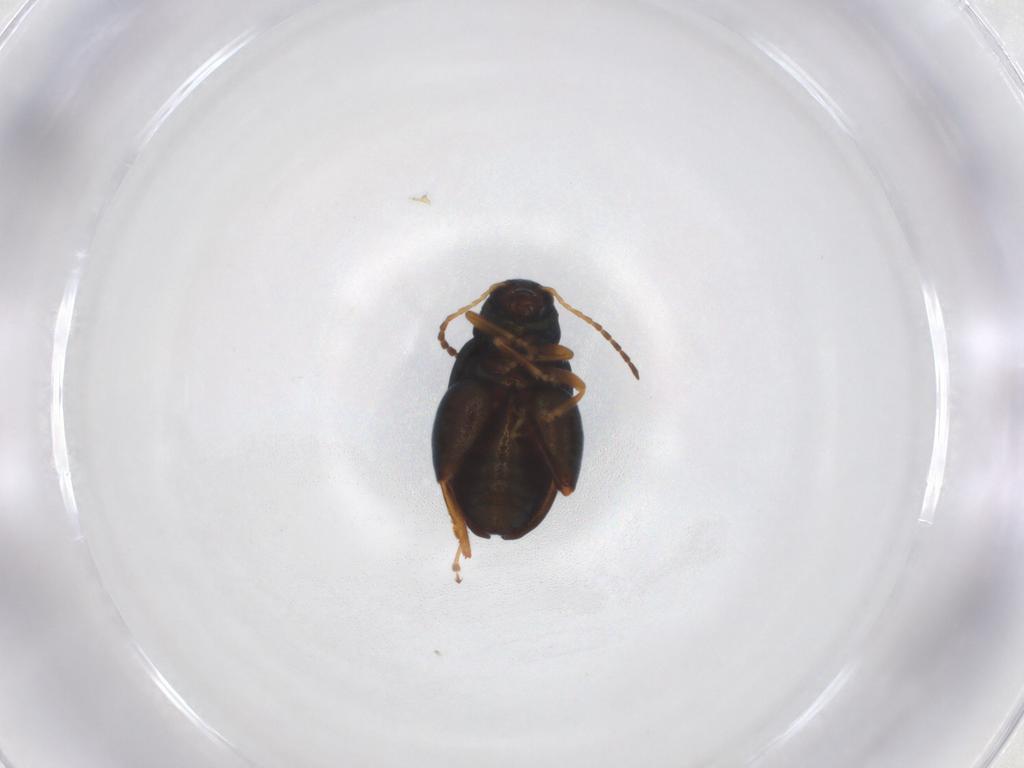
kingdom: Animalia
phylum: Arthropoda
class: Insecta
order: Coleoptera
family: Chrysomelidae
